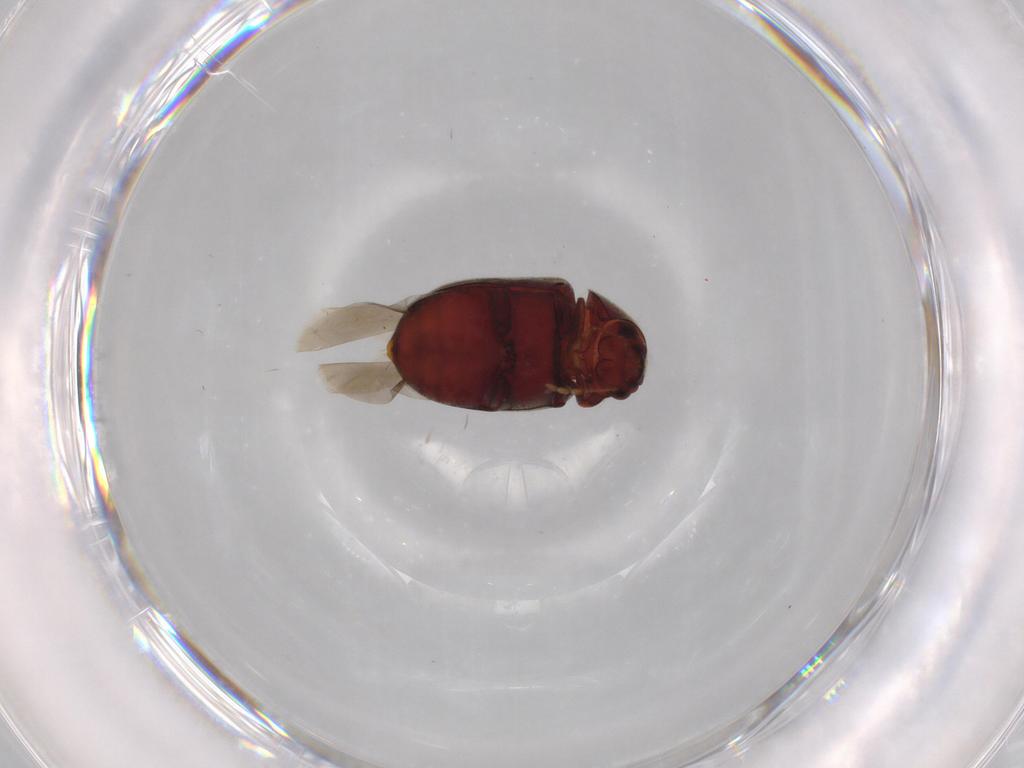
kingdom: Animalia
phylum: Arthropoda
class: Insecta
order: Coleoptera
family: Ptinidae
